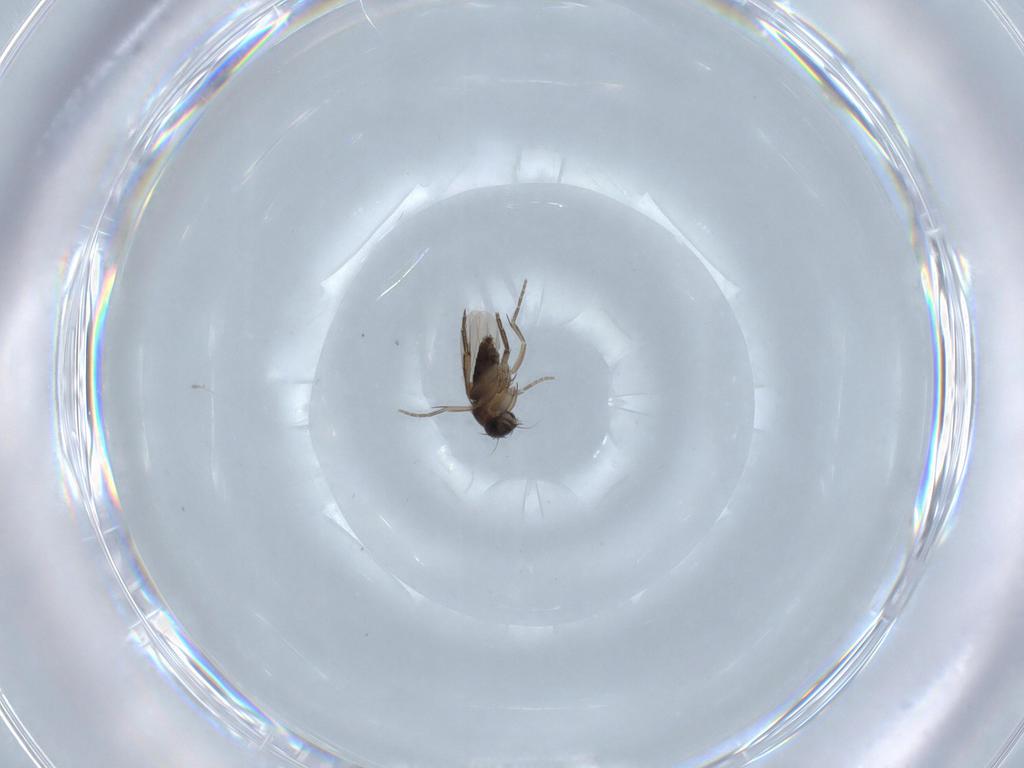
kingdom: Animalia
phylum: Arthropoda
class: Insecta
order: Diptera
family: Phoridae
